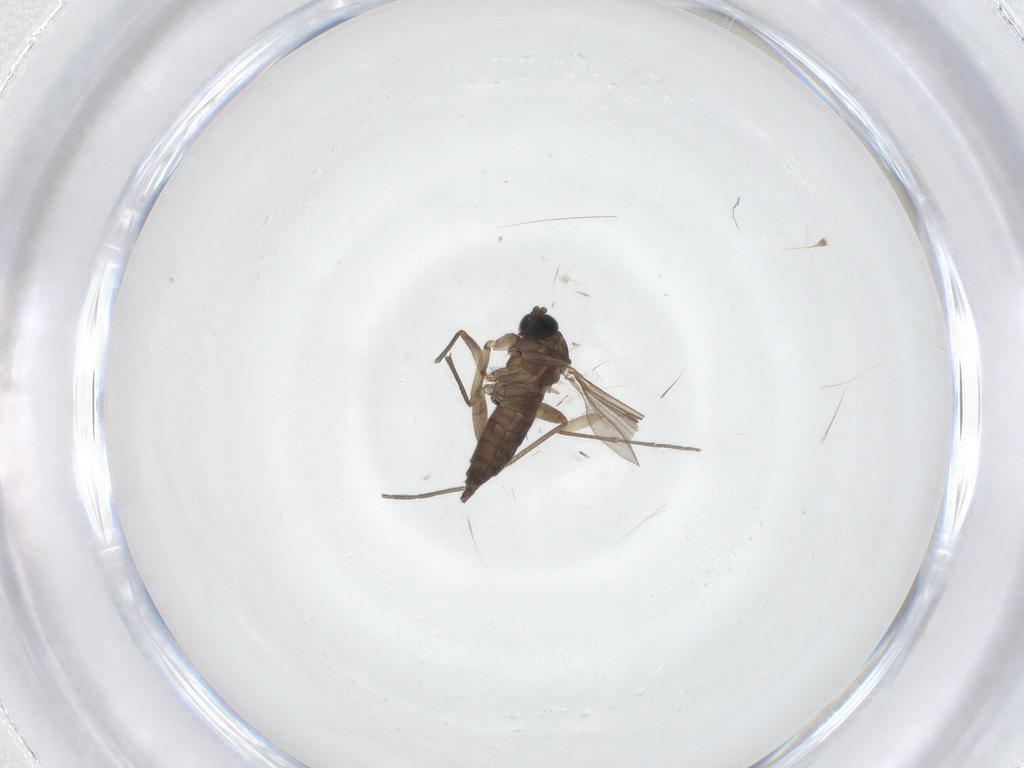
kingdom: Animalia
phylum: Arthropoda
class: Insecta
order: Diptera
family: Sciaridae
